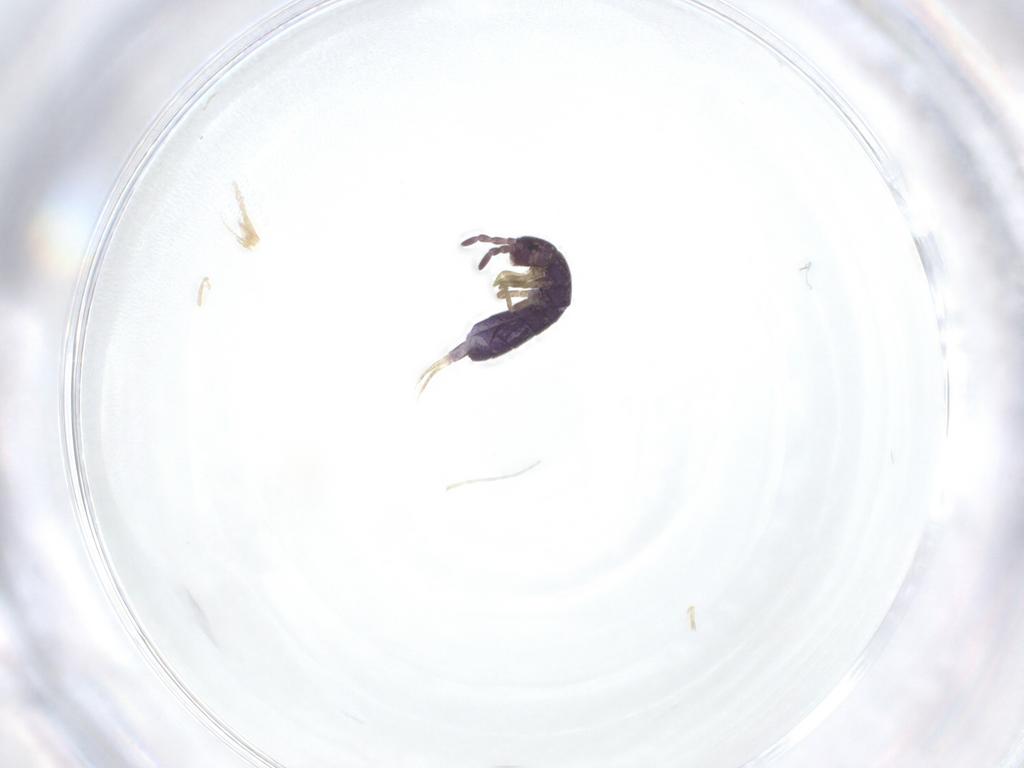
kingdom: Animalia
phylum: Arthropoda
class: Collembola
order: Entomobryomorpha
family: Tomoceridae
